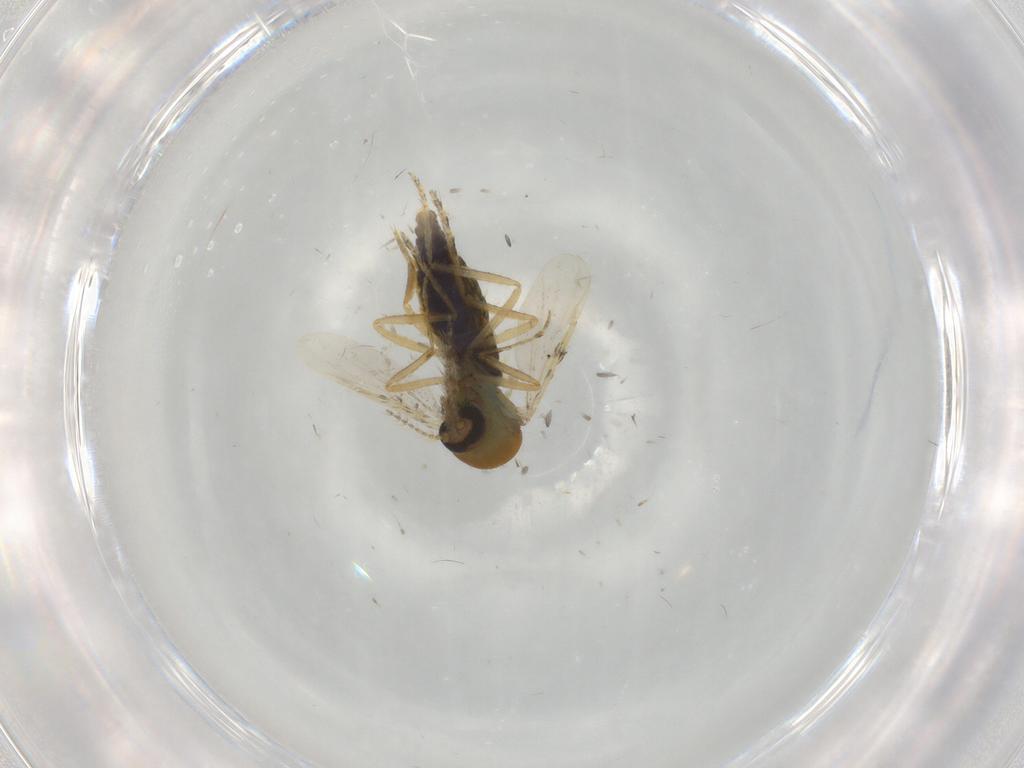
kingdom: Animalia
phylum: Arthropoda
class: Insecta
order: Diptera
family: Ceratopogonidae
